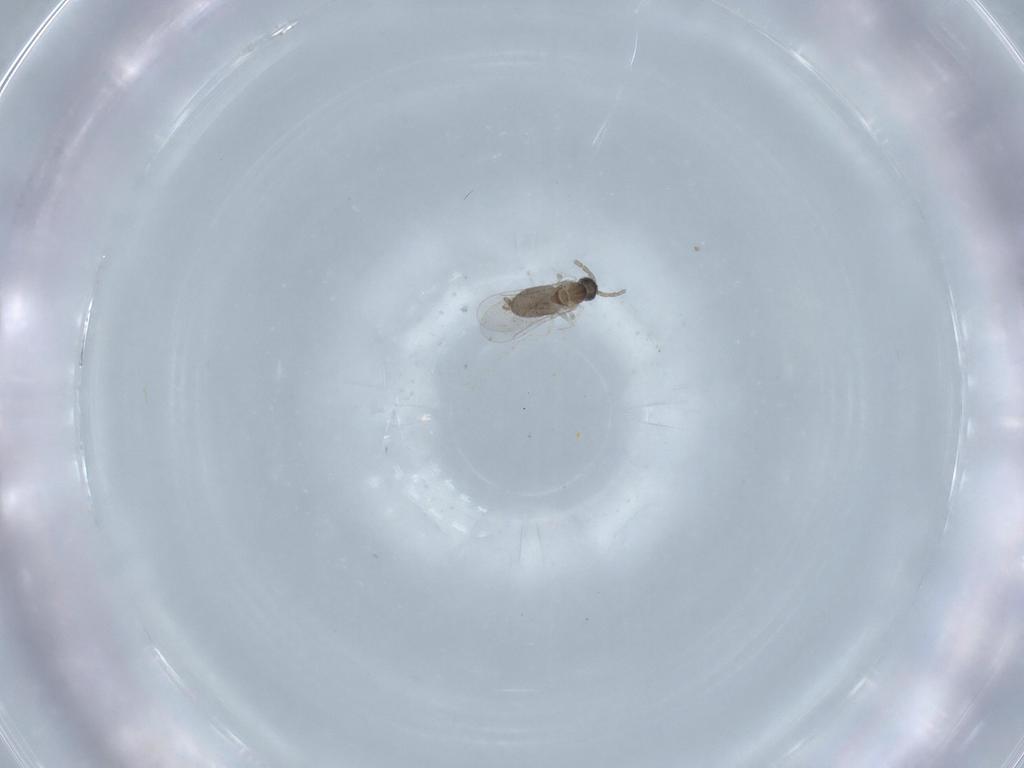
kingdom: Animalia
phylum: Arthropoda
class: Insecta
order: Diptera
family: Chironomidae
